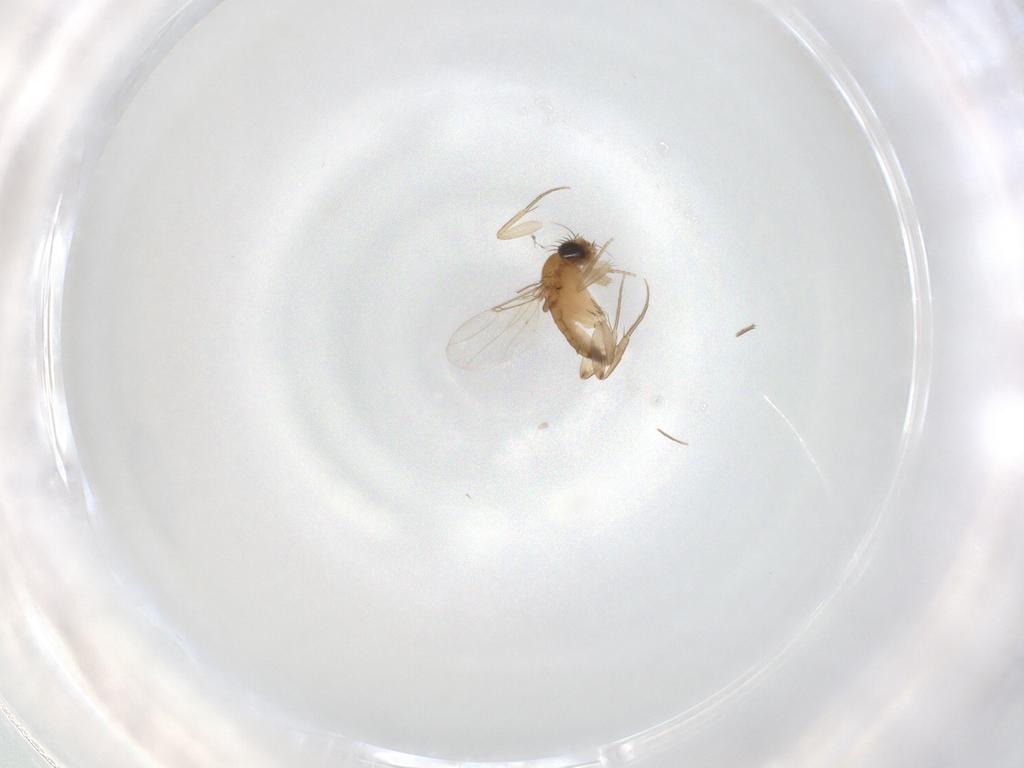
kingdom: Animalia
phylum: Arthropoda
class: Insecta
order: Diptera
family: Phoridae
